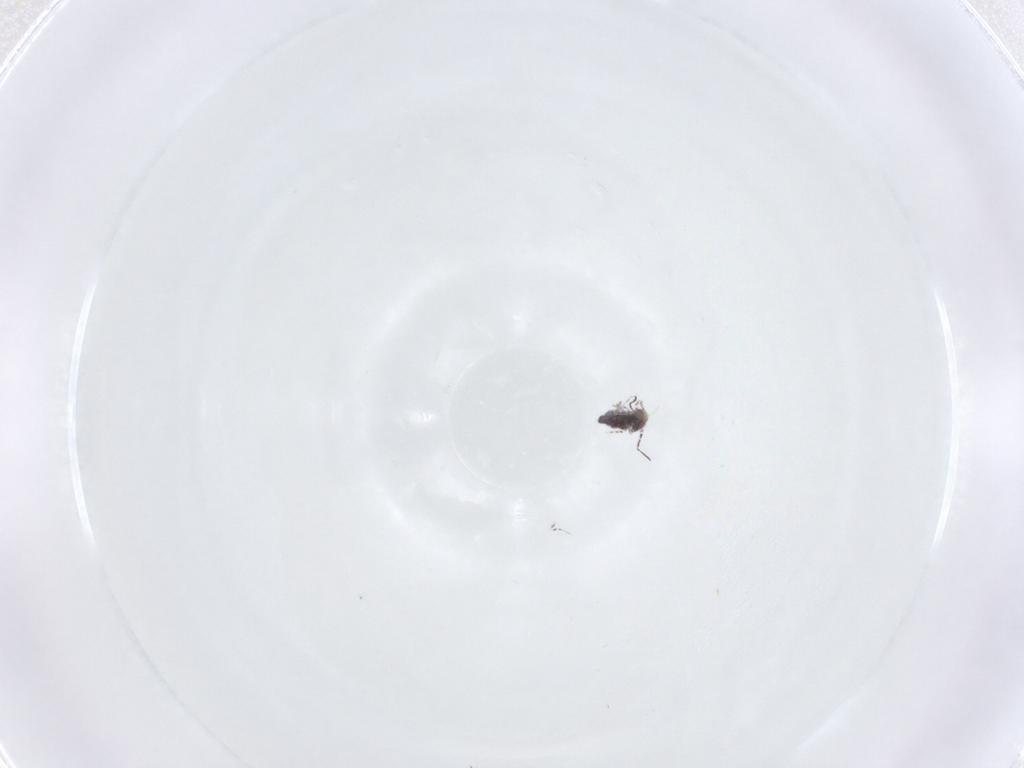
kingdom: Animalia
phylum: Arthropoda
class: Collembola
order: Symphypleona
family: Bourletiellidae
